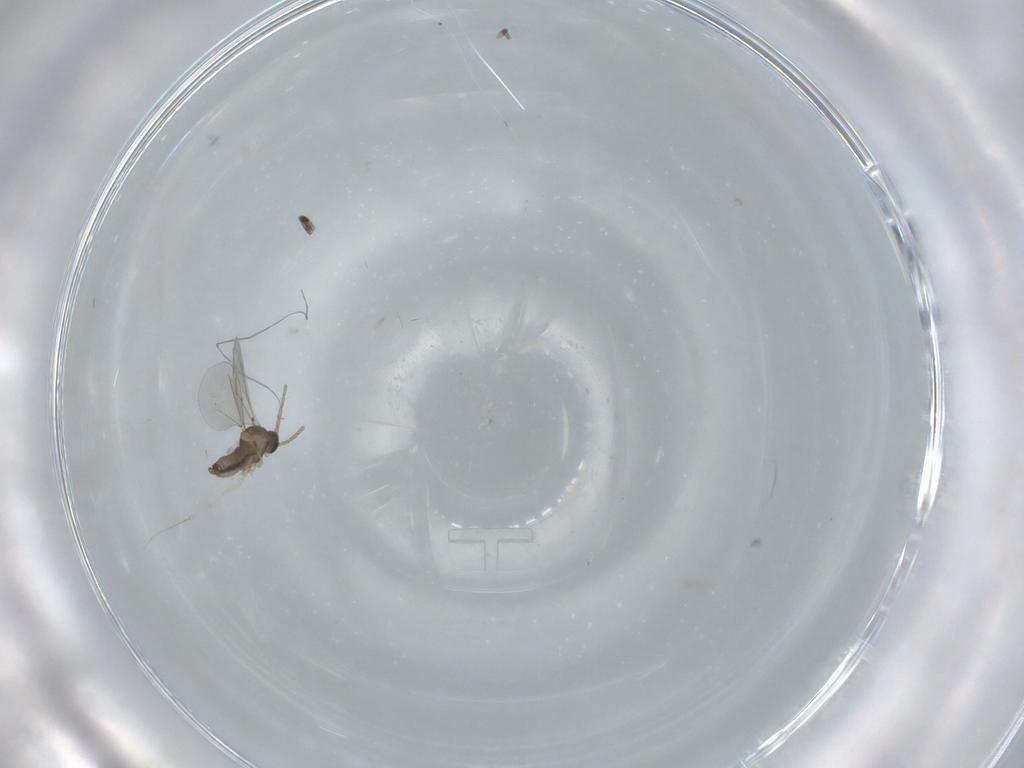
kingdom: Animalia
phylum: Arthropoda
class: Insecta
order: Diptera
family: Cecidomyiidae
